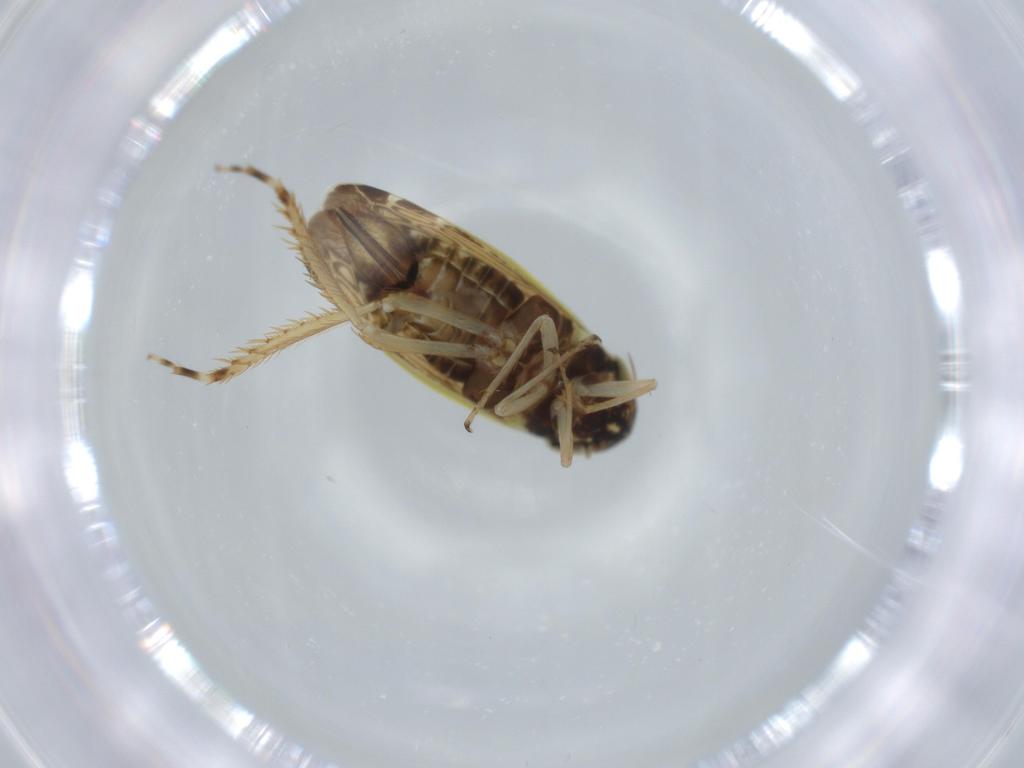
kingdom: Animalia
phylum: Arthropoda
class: Insecta
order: Hemiptera
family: Cicadellidae
